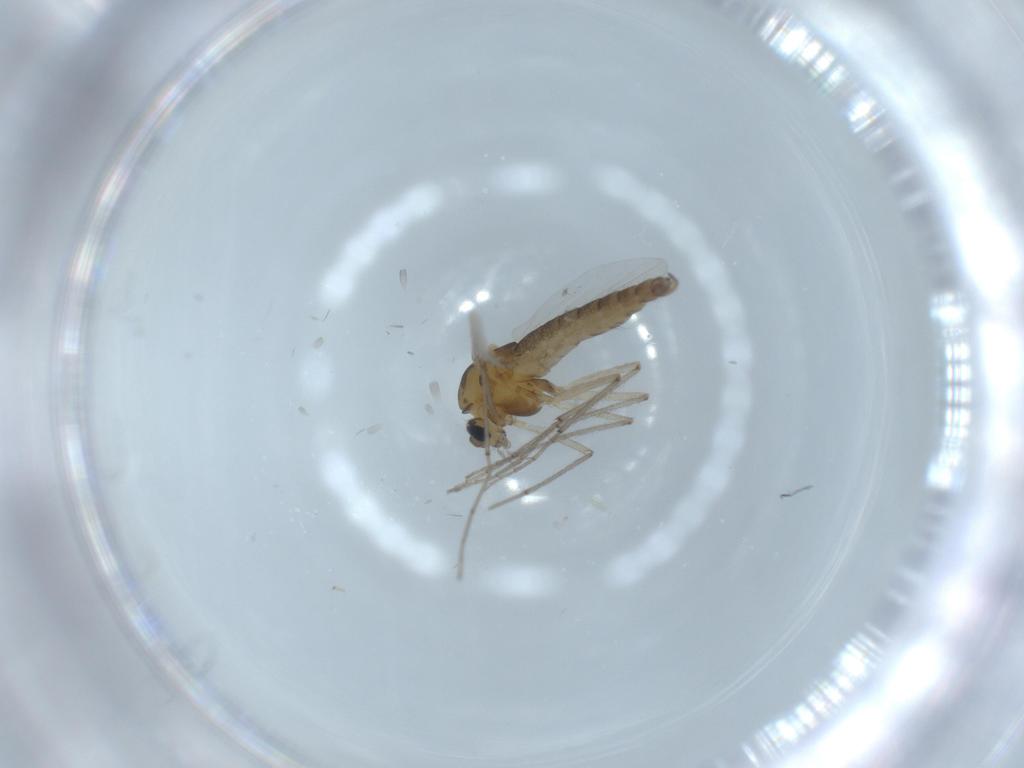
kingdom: Animalia
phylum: Arthropoda
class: Insecta
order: Diptera
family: Chironomidae
